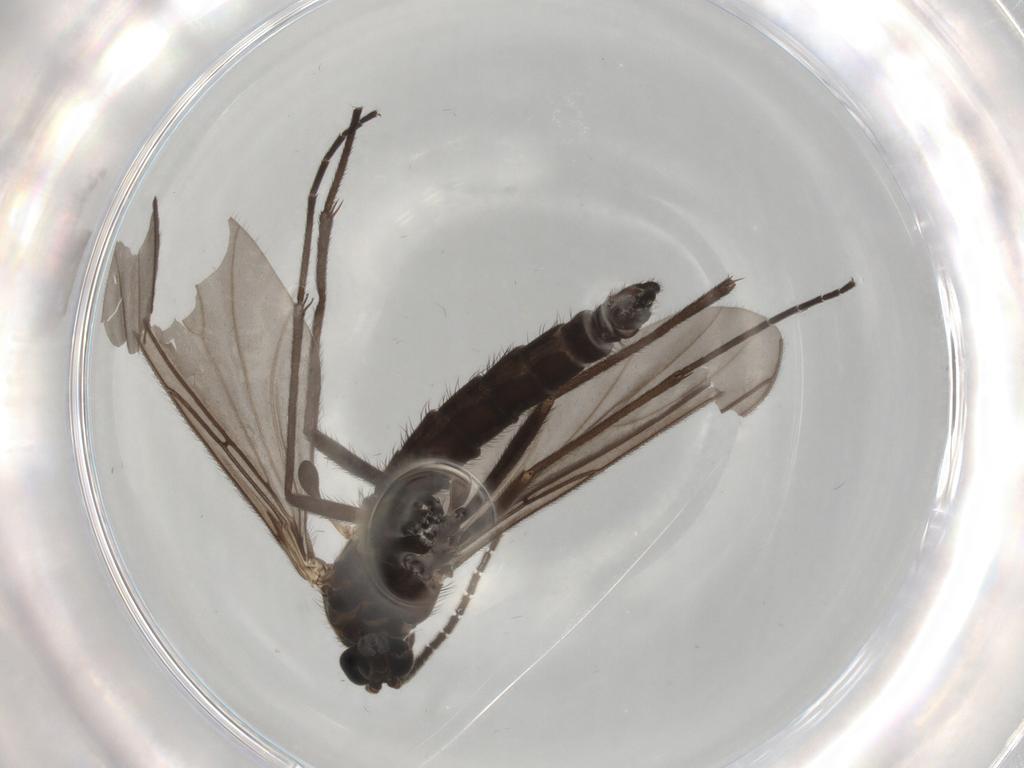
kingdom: Animalia
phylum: Arthropoda
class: Insecta
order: Diptera
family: Sciaridae
